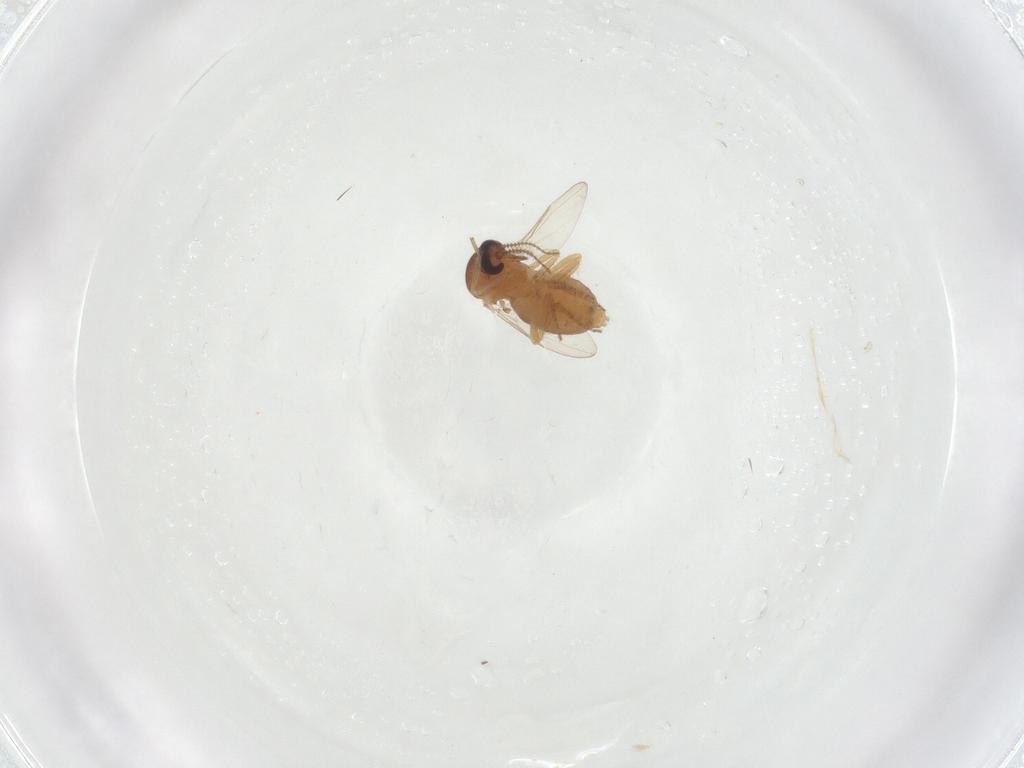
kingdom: Animalia
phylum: Arthropoda
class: Insecta
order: Diptera
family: Ceratopogonidae
